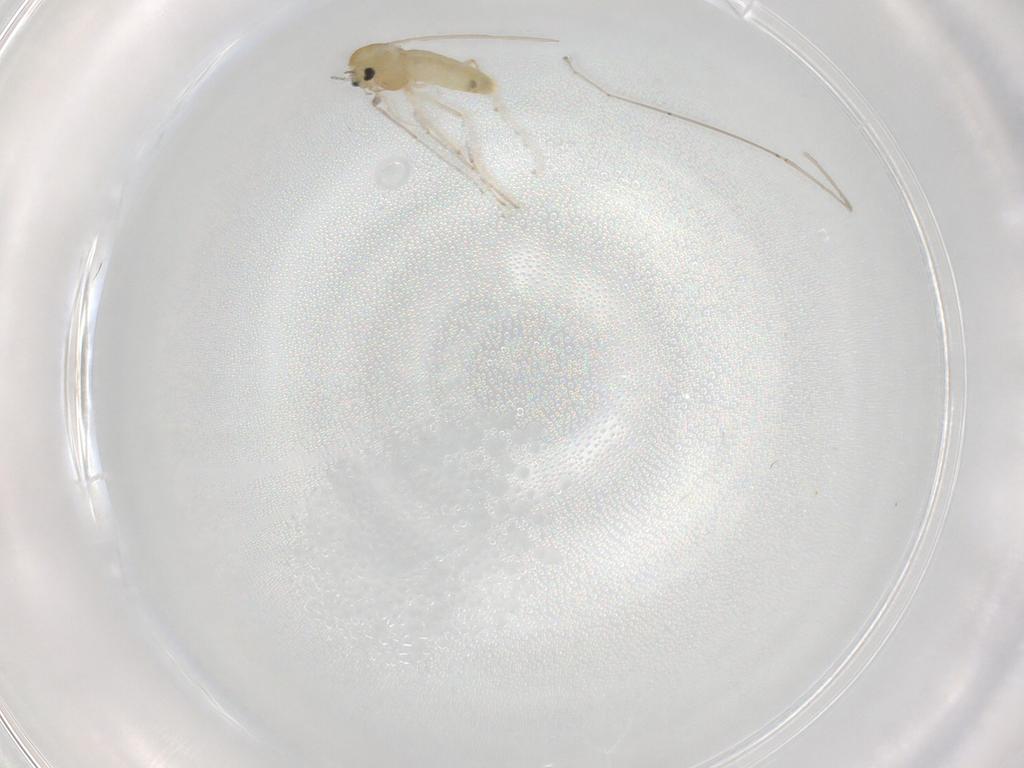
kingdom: Animalia
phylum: Arthropoda
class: Insecta
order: Diptera
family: Chironomidae
